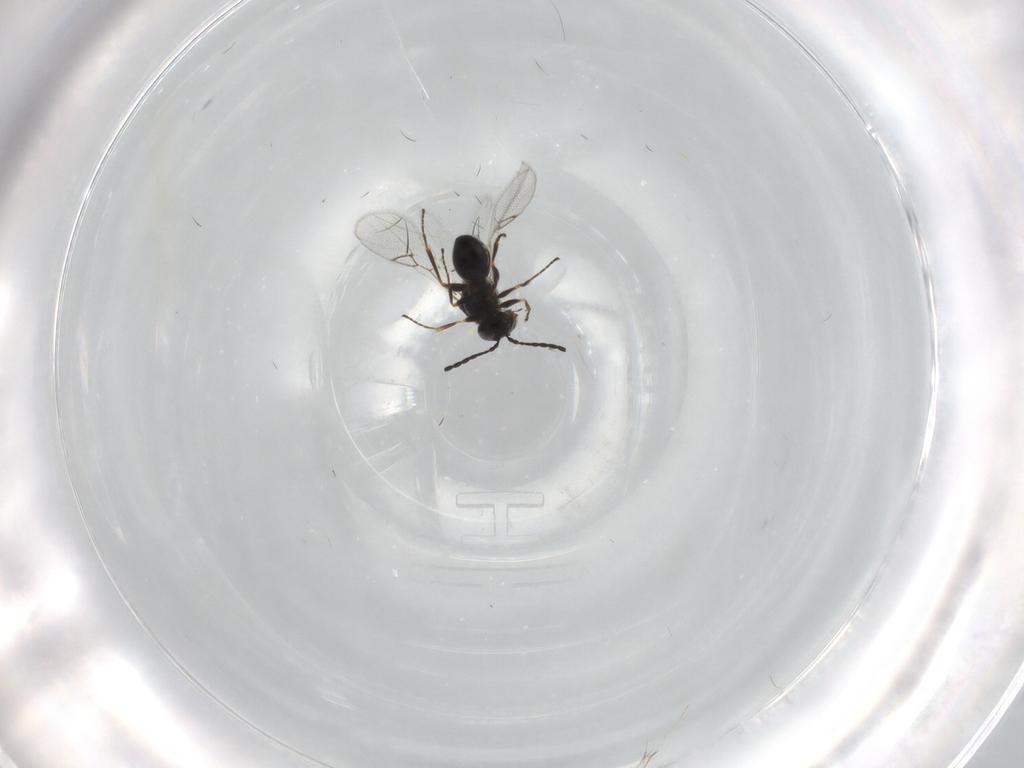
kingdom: Animalia
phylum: Arthropoda
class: Insecta
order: Hymenoptera
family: Figitidae
